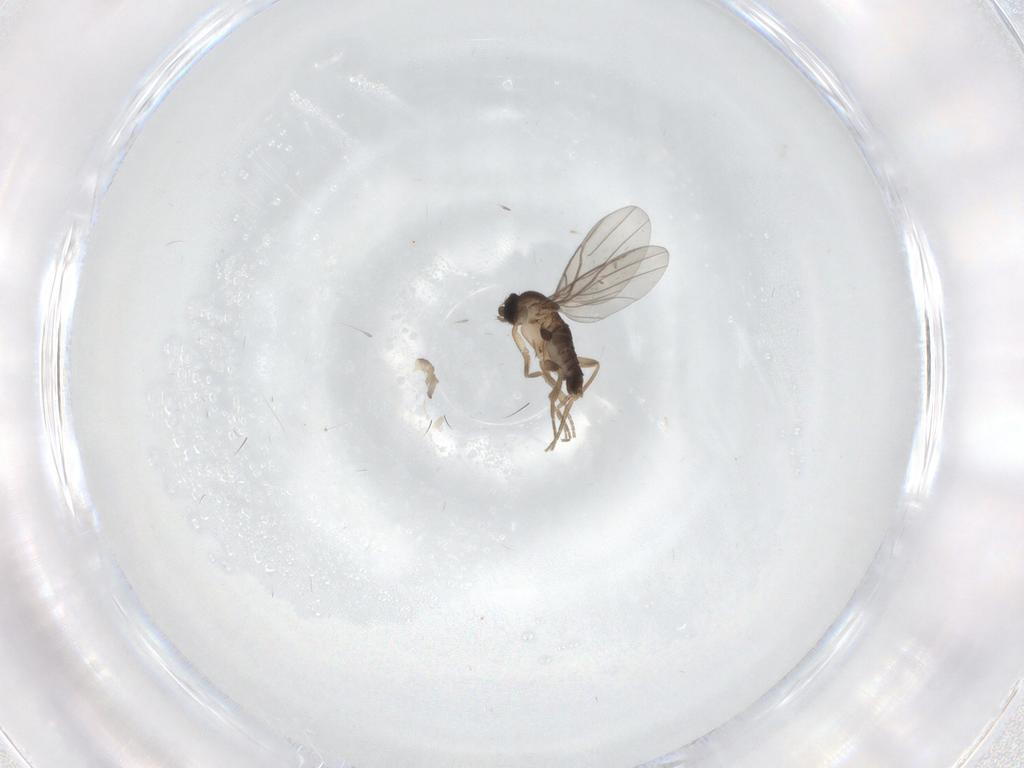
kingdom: Animalia
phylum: Arthropoda
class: Insecta
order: Diptera
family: Phoridae
